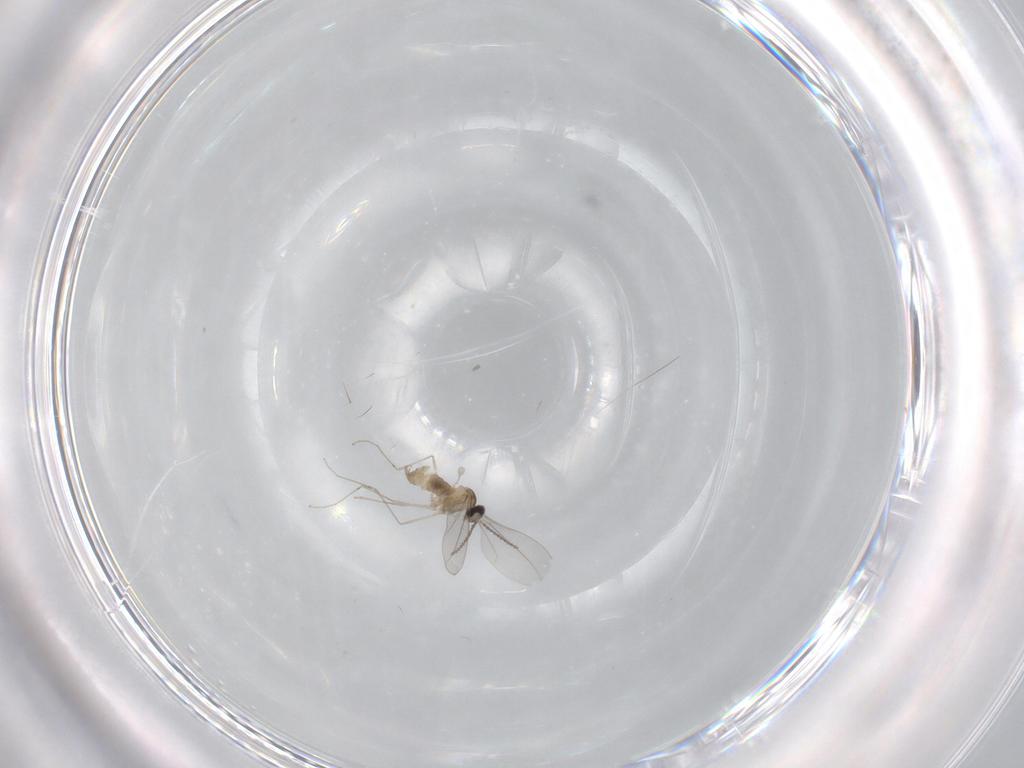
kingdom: Animalia
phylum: Arthropoda
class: Insecta
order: Diptera
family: Cecidomyiidae
